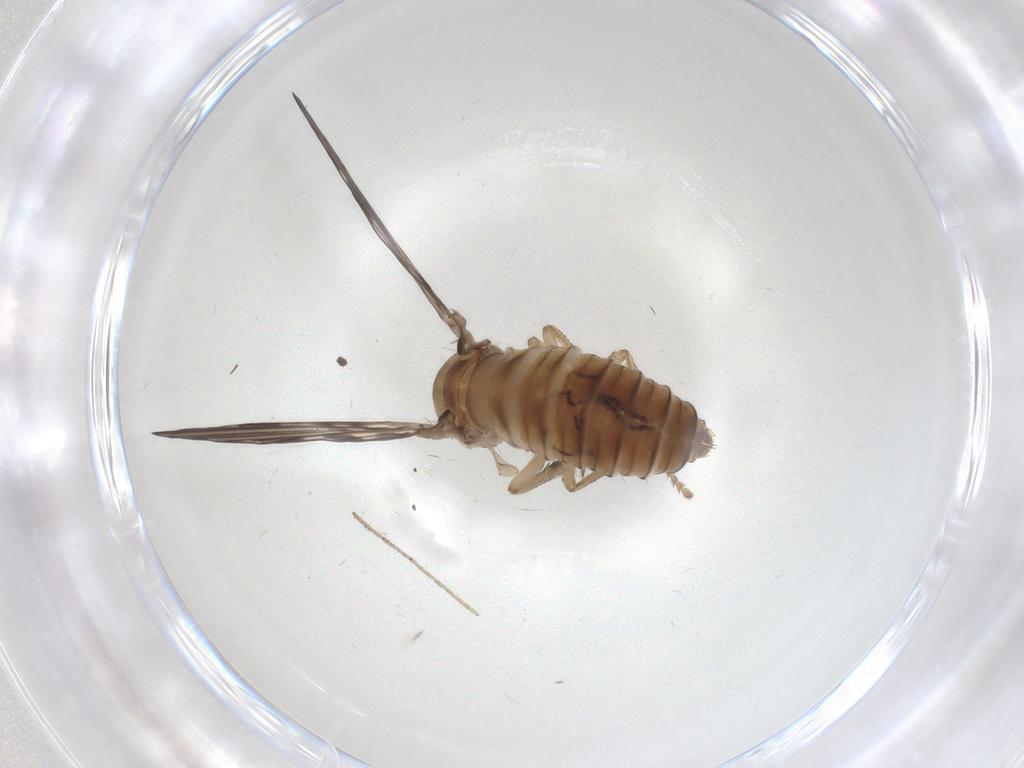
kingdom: Animalia
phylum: Arthropoda
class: Insecta
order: Diptera
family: Psychodidae
